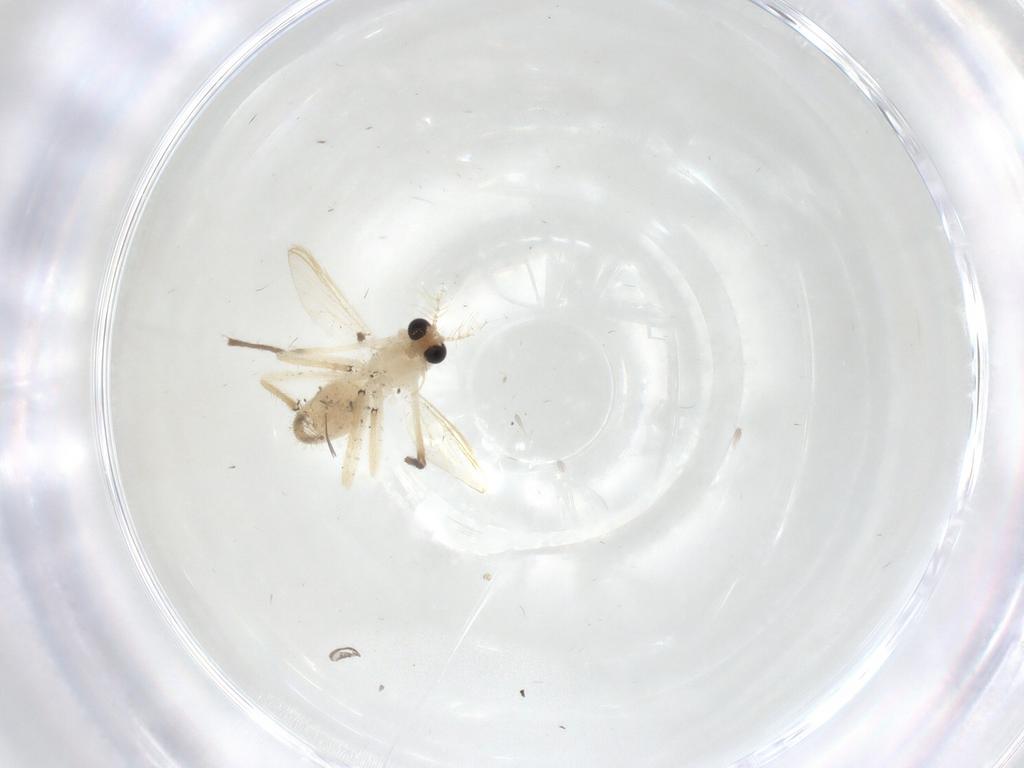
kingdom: Animalia
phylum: Arthropoda
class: Insecta
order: Diptera
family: Chironomidae
